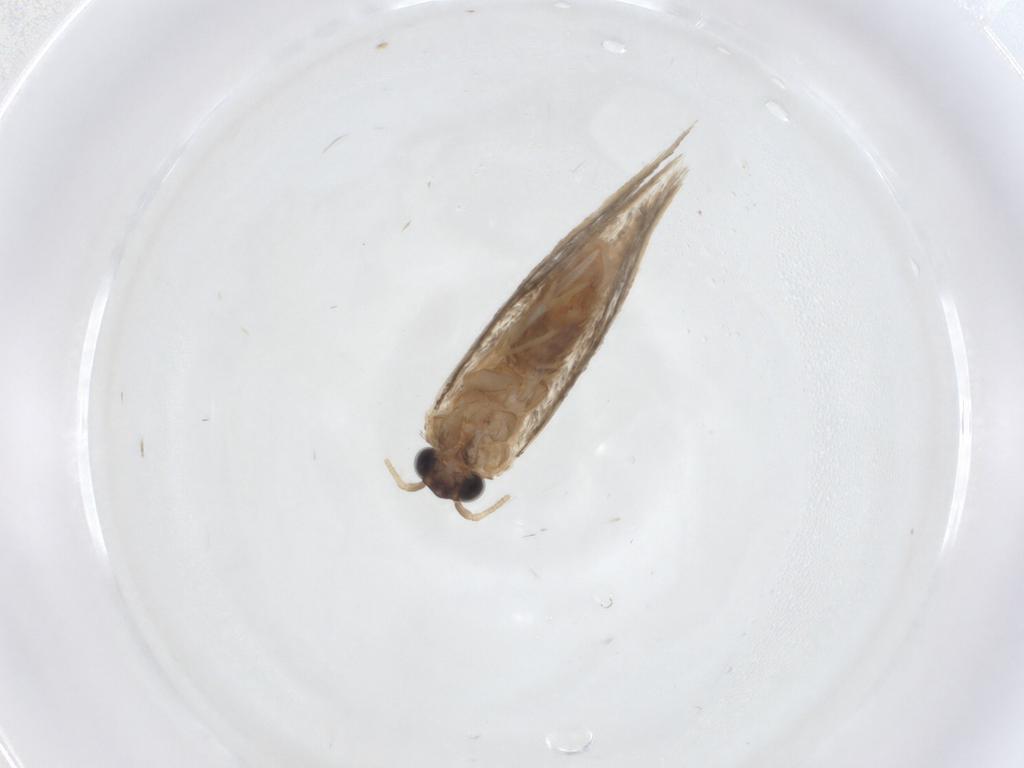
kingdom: Animalia
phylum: Arthropoda
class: Insecta
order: Lepidoptera
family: Tineidae
